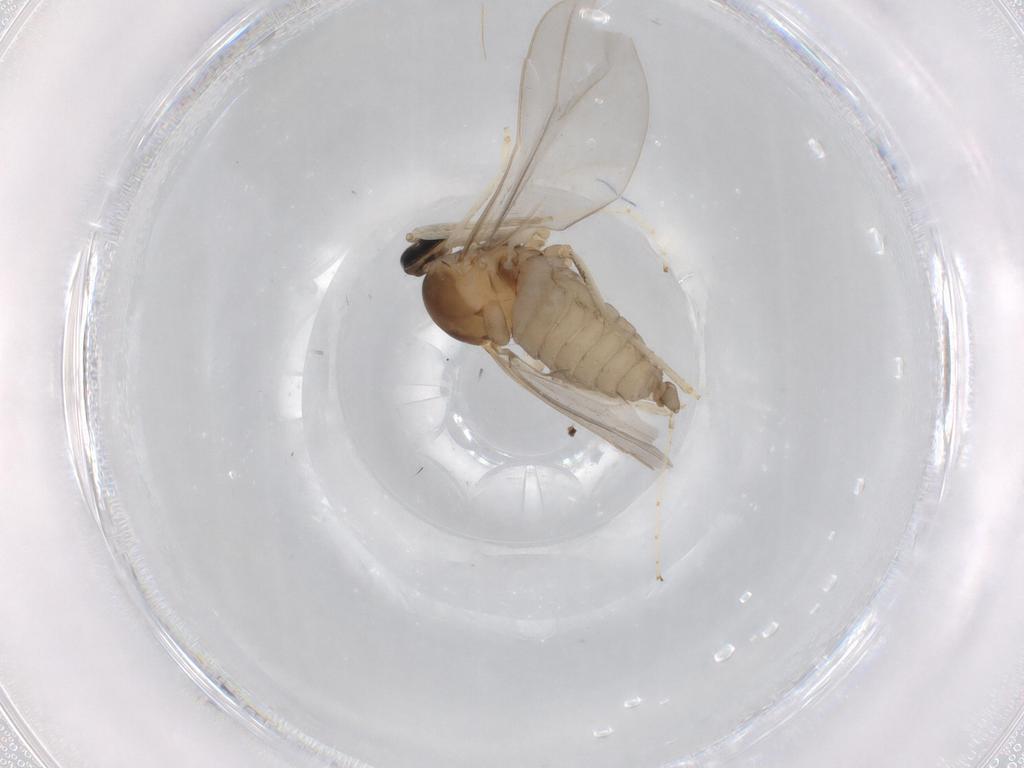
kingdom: Animalia
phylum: Arthropoda
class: Insecta
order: Diptera
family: Cecidomyiidae
